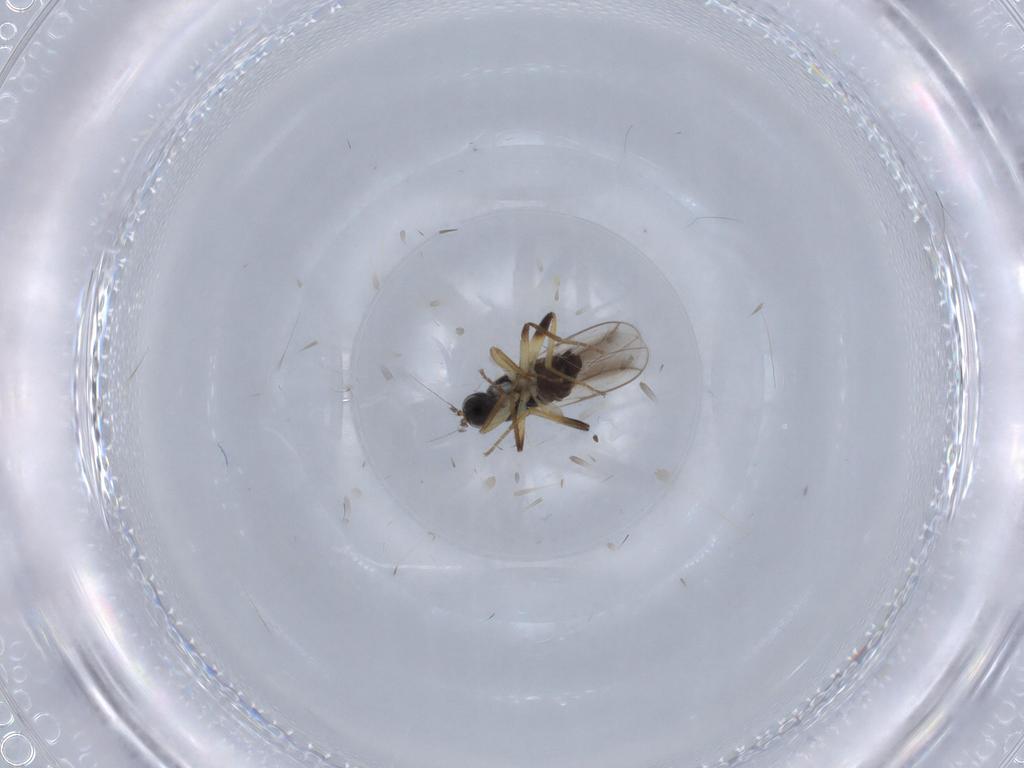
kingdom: Animalia
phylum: Arthropoda
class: Insecta
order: Diptera
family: Hybotidae
